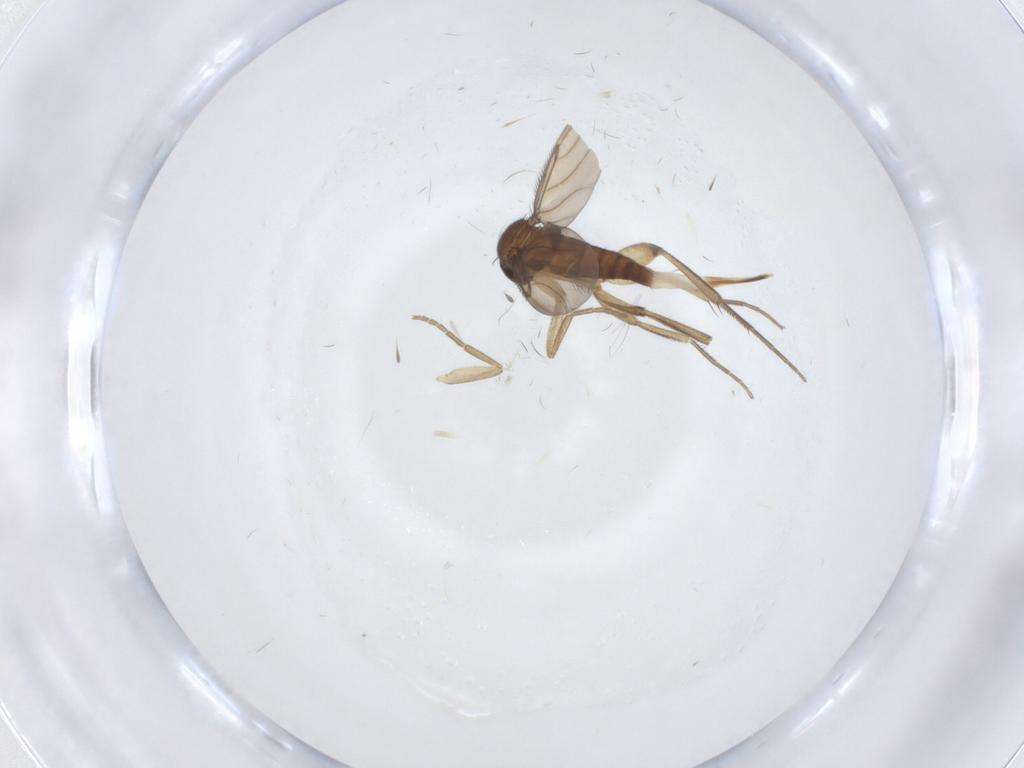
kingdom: Animalia
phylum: Arthropoda
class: Insecta
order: Diptera
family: Phoridae
